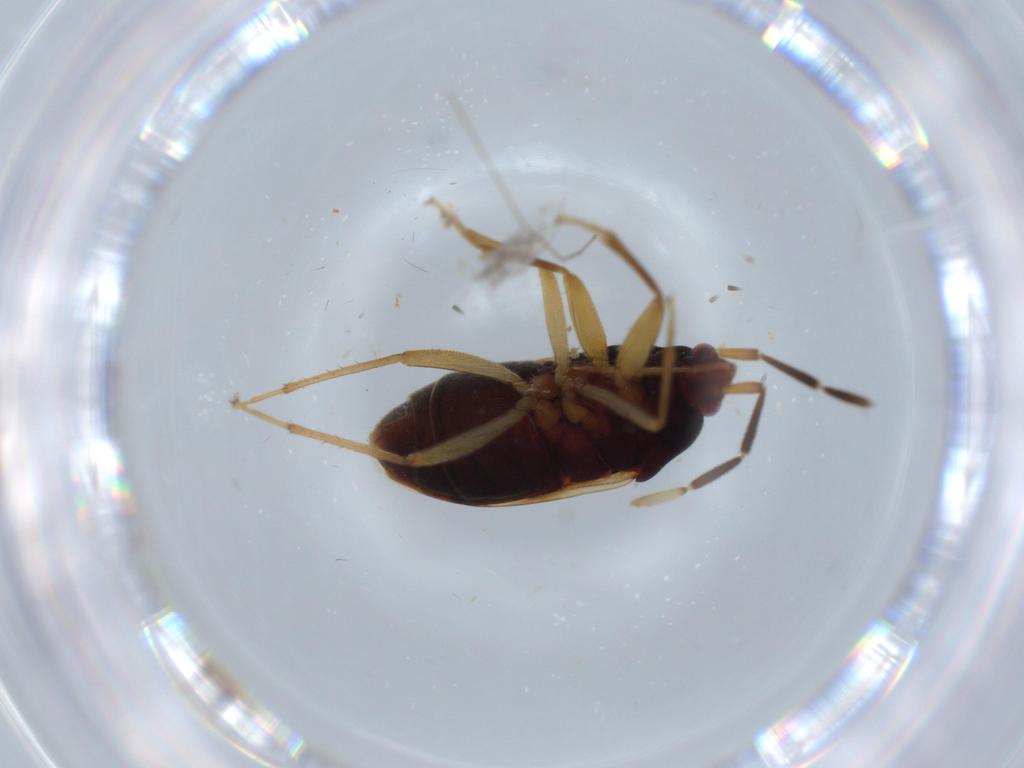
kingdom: Animalia
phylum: Arthropoda
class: Insecta
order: Hemiptera
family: Rhyparochromidae
